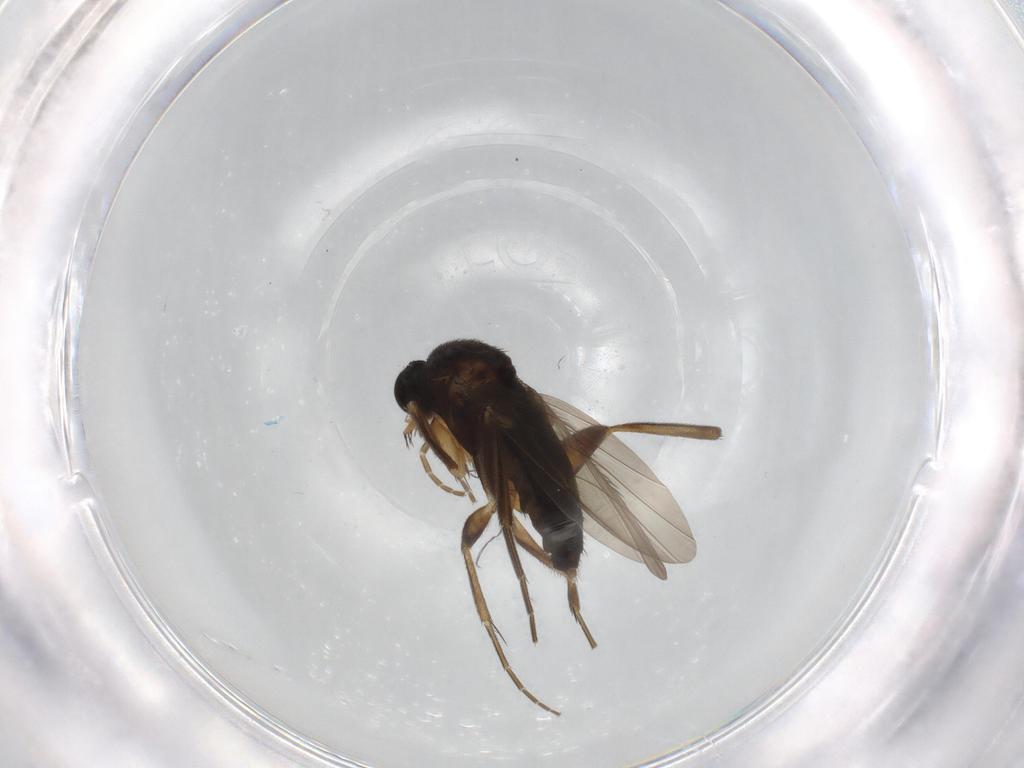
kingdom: Animalia
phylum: Arthropoda
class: Insecta
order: Diptera
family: Phoridae
